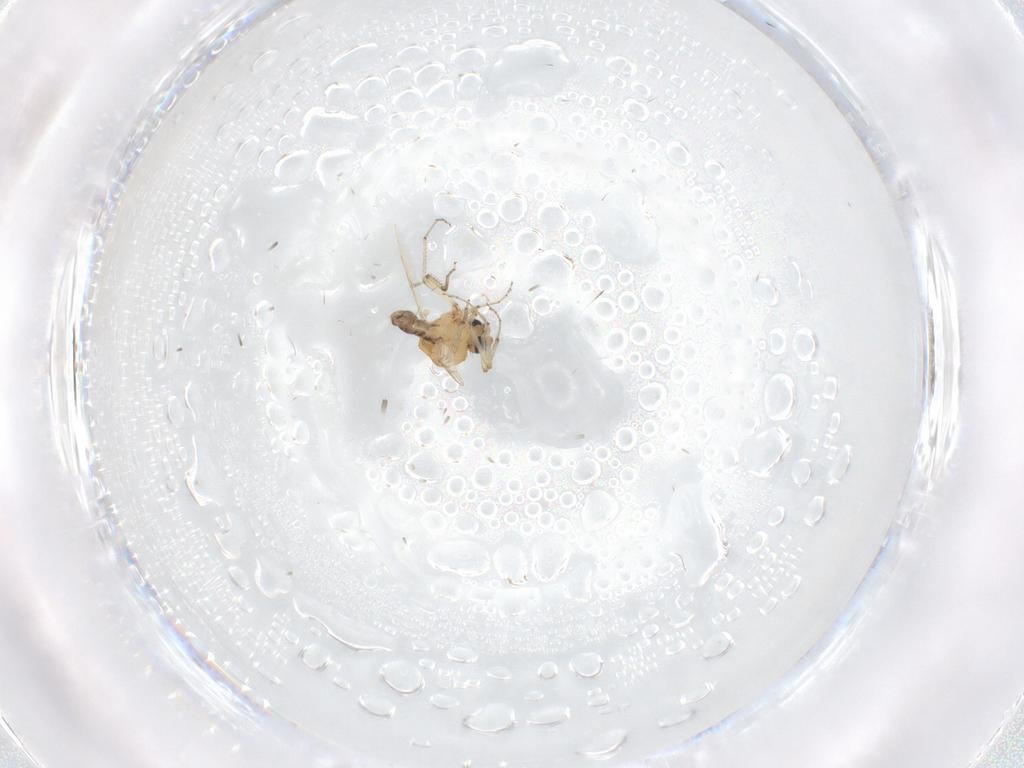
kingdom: Animalia
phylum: Arthropoda
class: Insecta
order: Diptera
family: Ceratopogonidae
